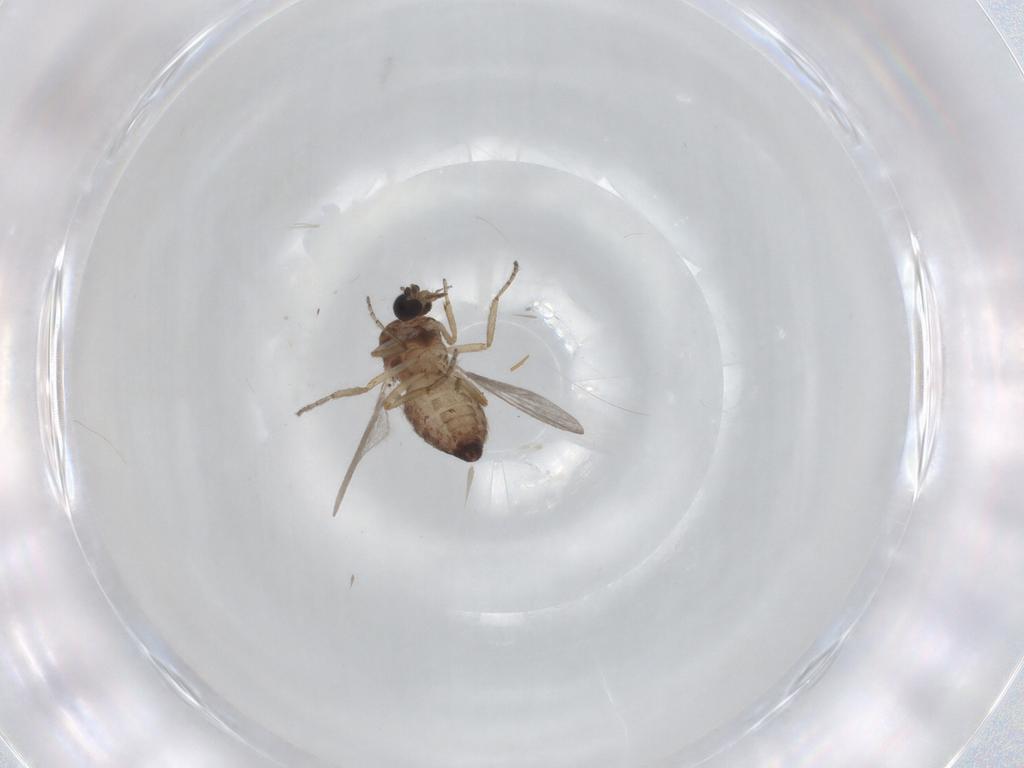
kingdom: Animalia
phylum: Arthropoda
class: Insecta
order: Diptera
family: Ceratopogonidae
